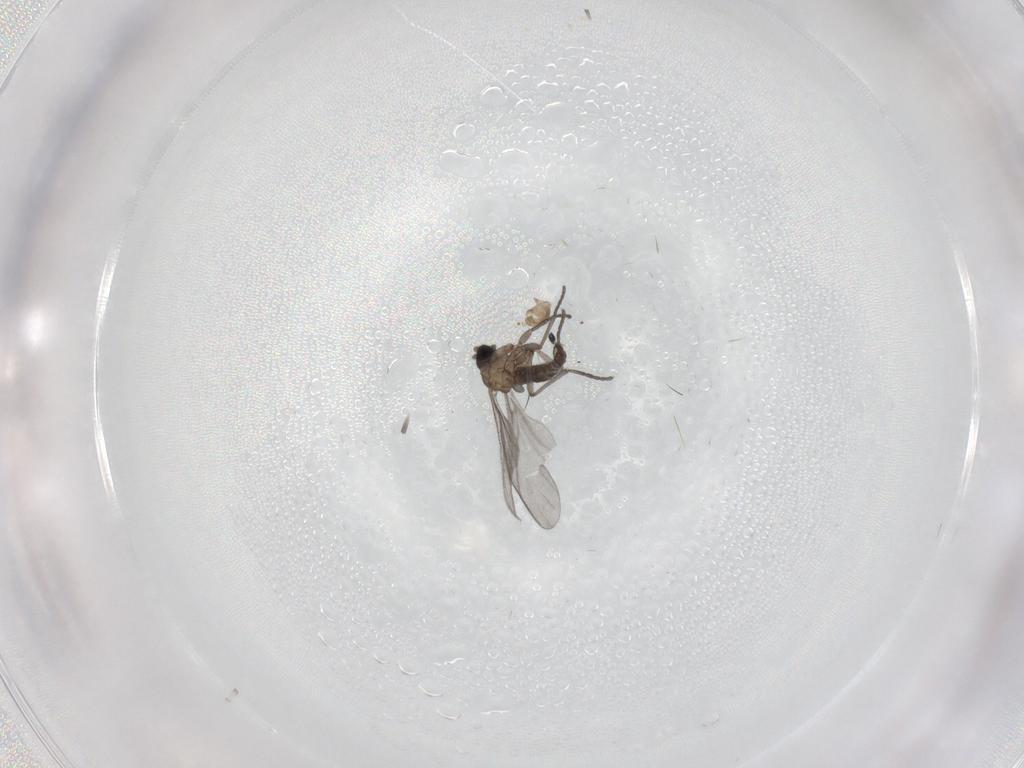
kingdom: Animalia
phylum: Arthropoda
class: Insecta
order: Diptera
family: Sciaridae
